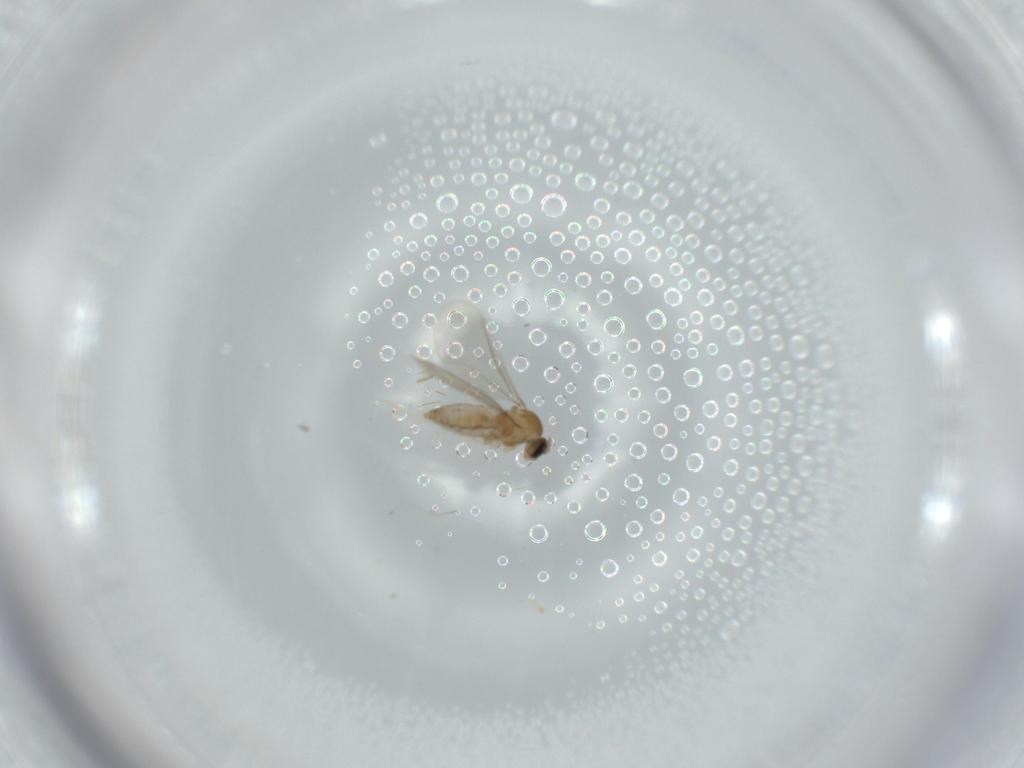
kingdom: Animalia
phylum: Arthropoda
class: Insecta
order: Diptera
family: Cecidomyiidae
